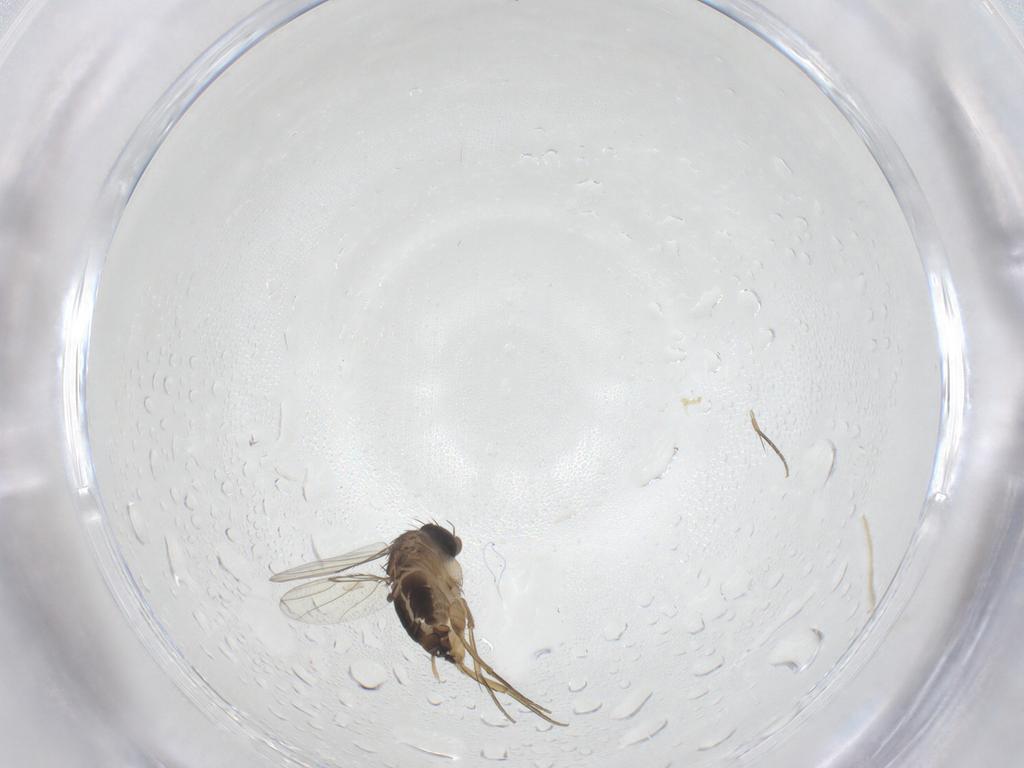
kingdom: Animalia
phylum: Arthropoda
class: Insecta
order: Diptera
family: Phoridae
